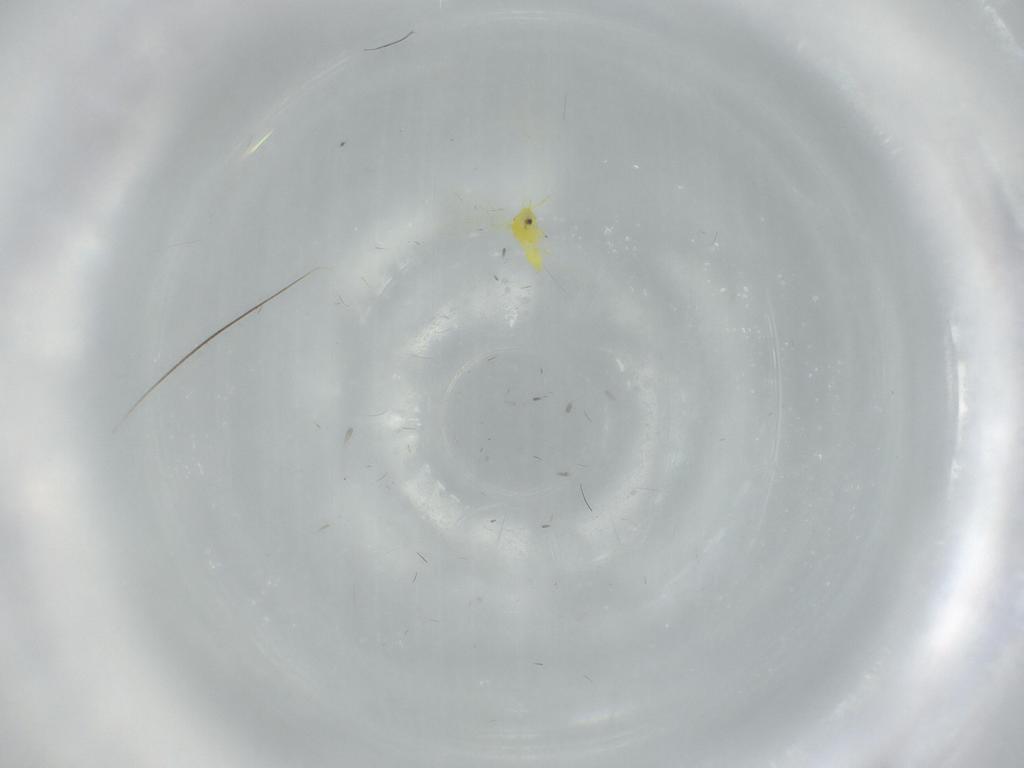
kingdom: Animalia
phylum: Arthropoda
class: Insecta
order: Hemiptera
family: Aleyrodidae
